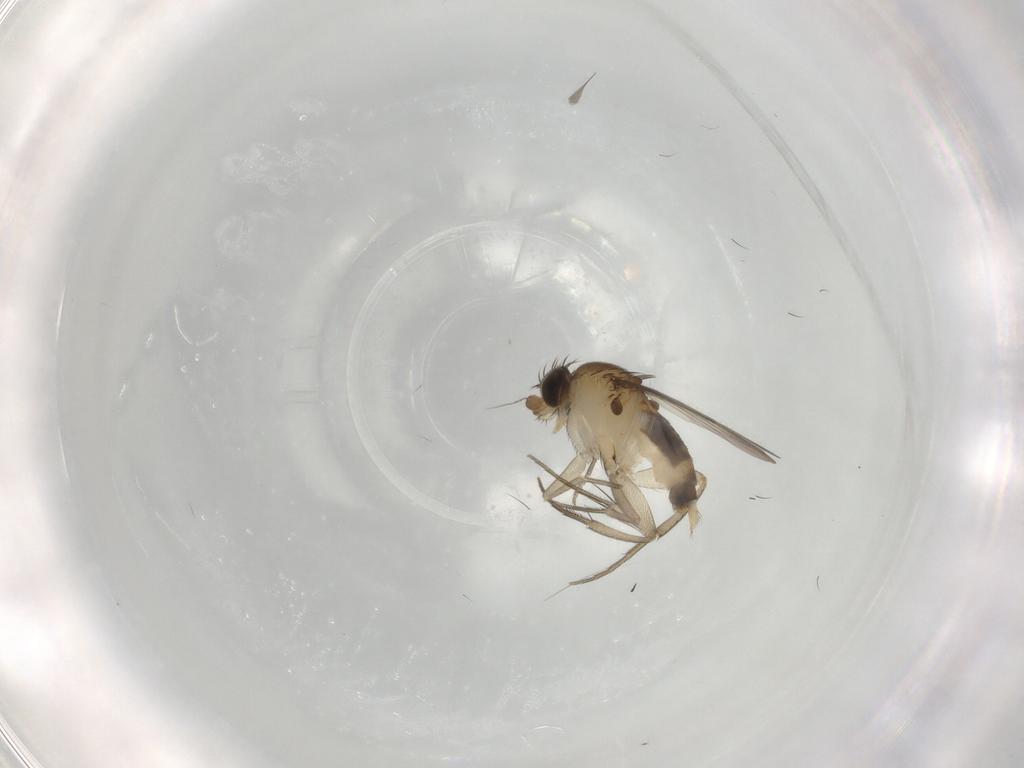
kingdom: Animalia
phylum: Arthropoda
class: Insecta
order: Diptera
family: Phoridae
